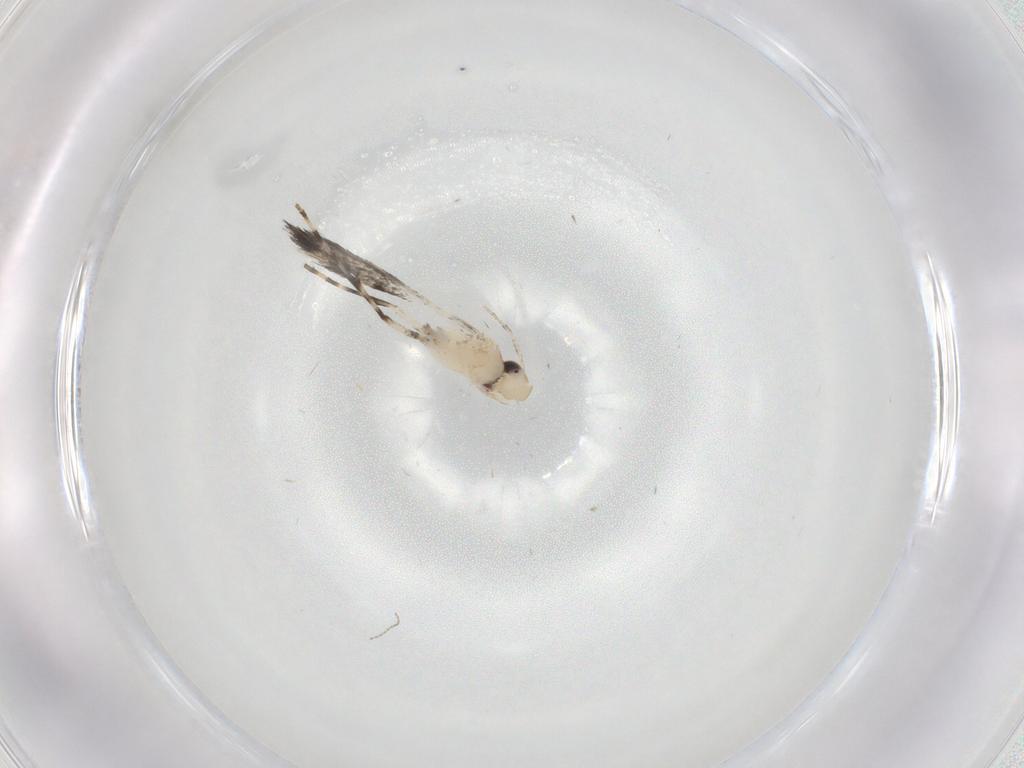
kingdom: Animalia
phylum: Arthropoda
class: Insecta
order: Lepidoptera
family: Gracillariidae
